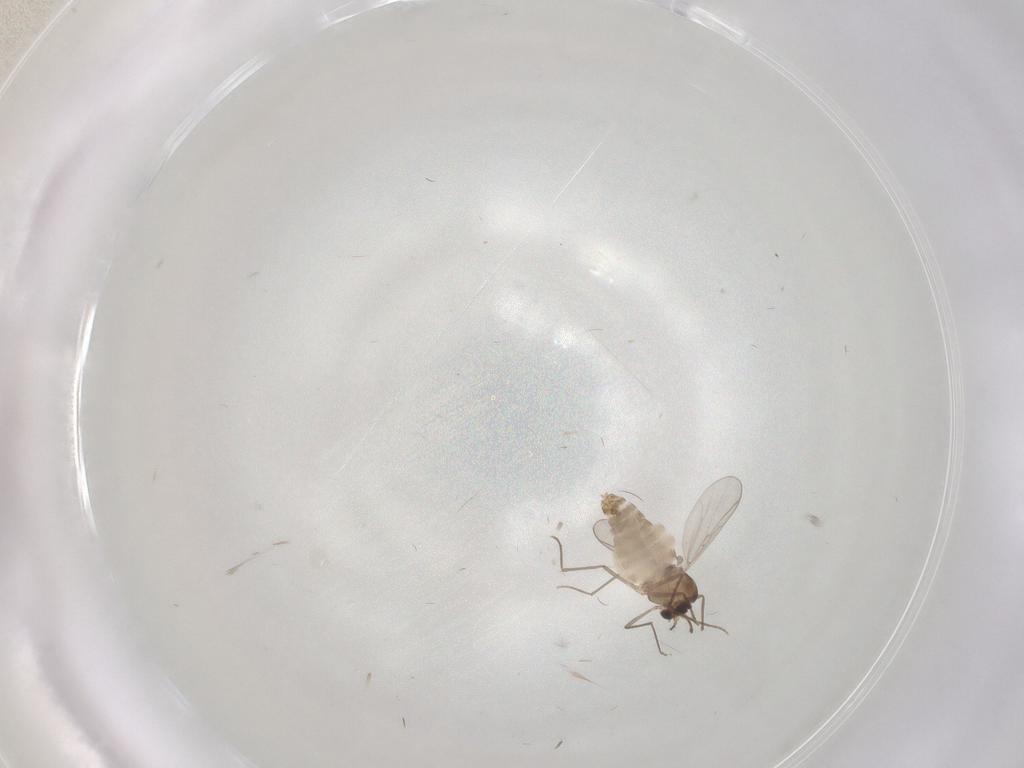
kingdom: Animalia
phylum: Arthropoda
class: Insecta
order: Diptera
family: Chironomidae
